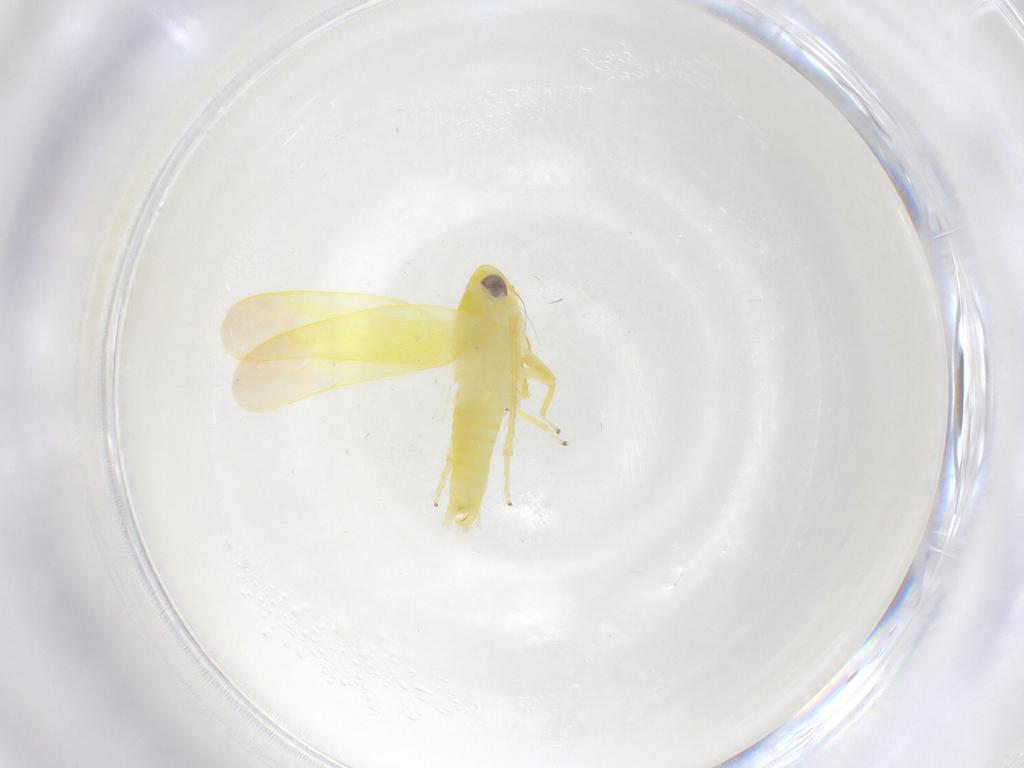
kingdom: Animalia
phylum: Arthropoda
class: Insecta
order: Hemiptera
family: Cicadellidae
